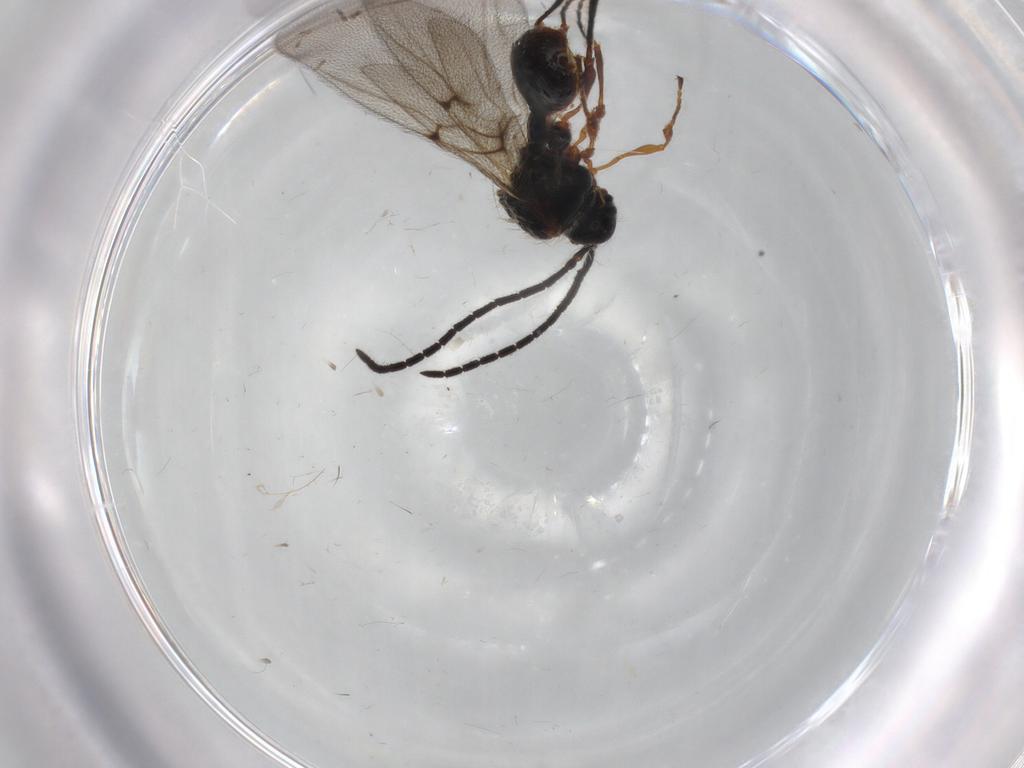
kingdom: Animalia
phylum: Arthropoda
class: Insecta
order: Hymenoptera
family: Diapriidae
